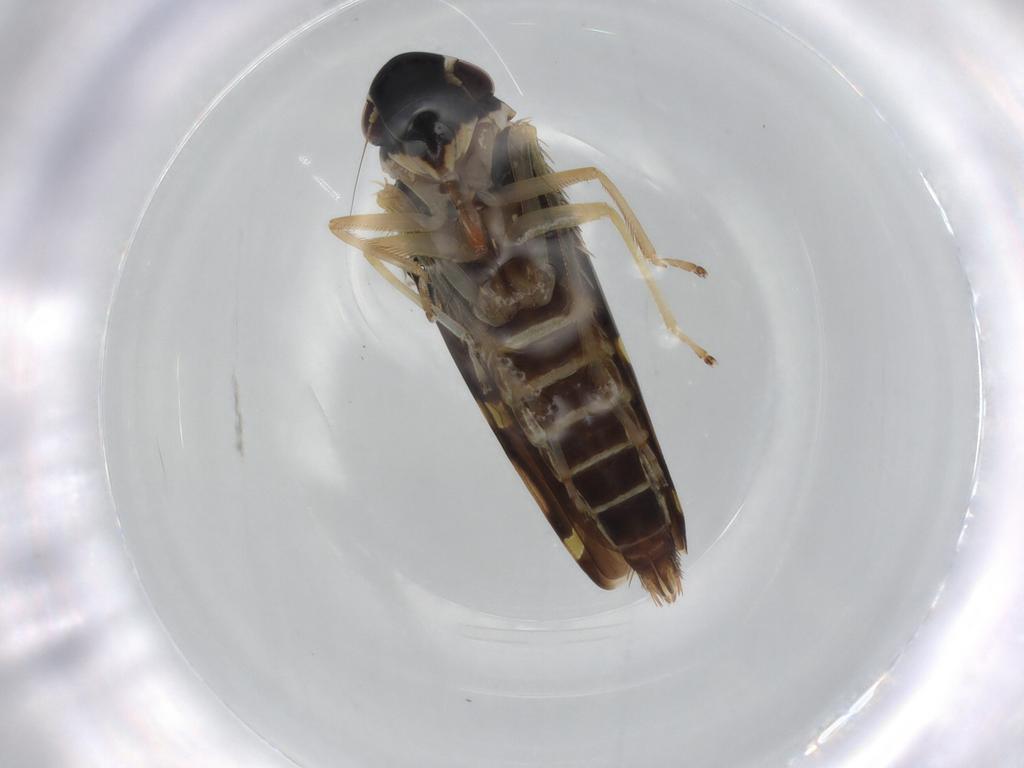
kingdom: Animalia
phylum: Arthropoda
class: Insecta
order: Hemiptera
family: Cicadellidae
